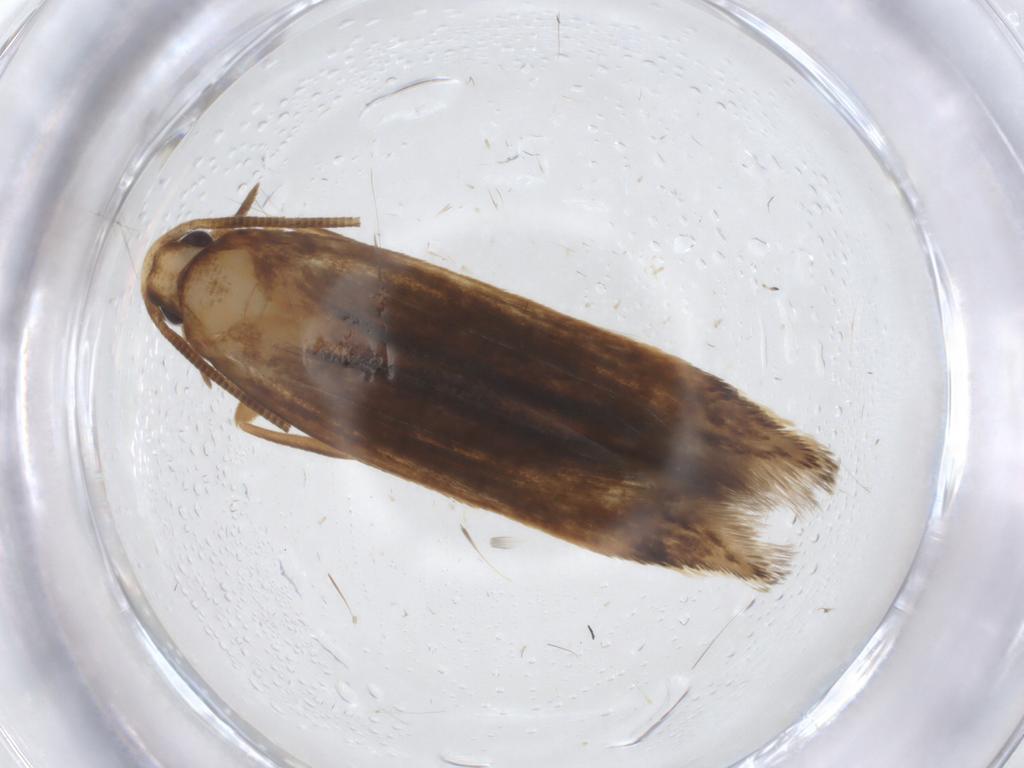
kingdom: Animalia
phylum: Arthropoda
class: Insecta
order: Lepidoptera
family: Tineidae
